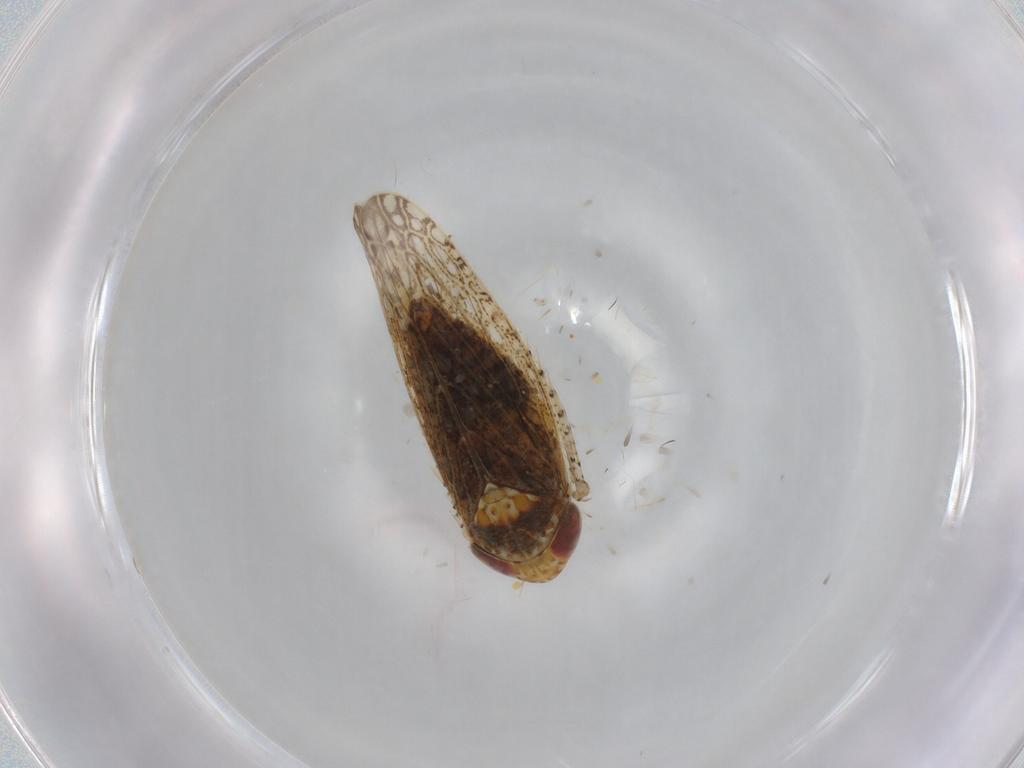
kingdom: Animalia
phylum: Arthropoda
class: Insecta
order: Hemiptera
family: Cicadellidae
